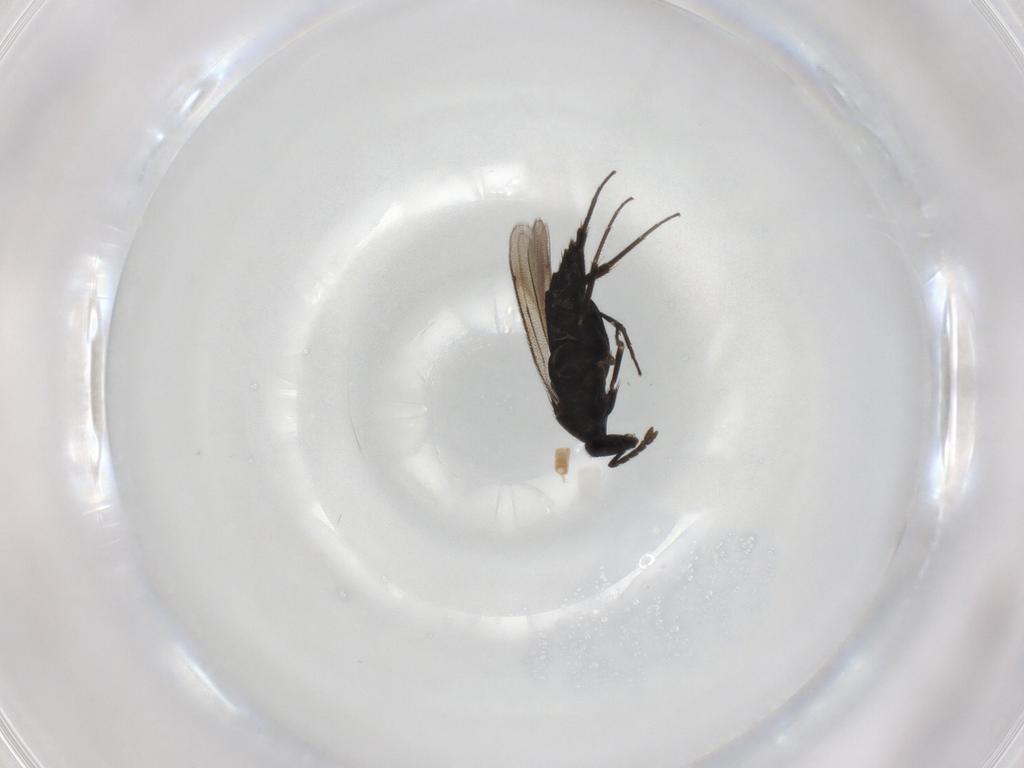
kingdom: Animalia
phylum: Arthropoda
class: Insecta
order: Hymenoptera
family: Eulophidae
